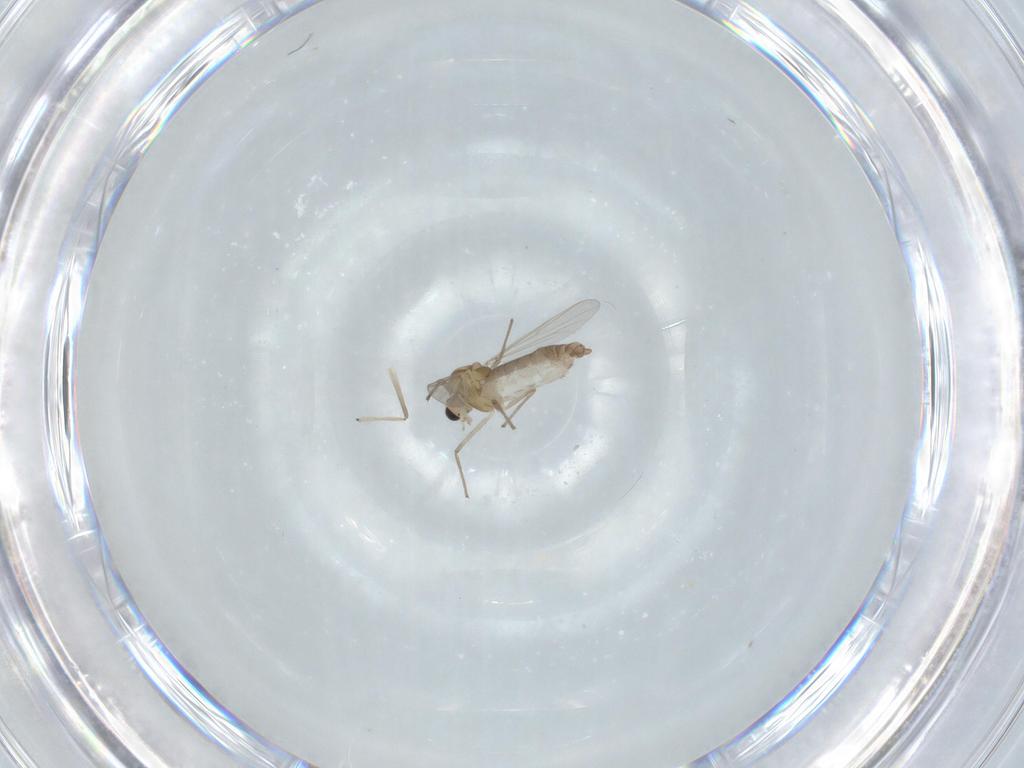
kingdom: Animalia
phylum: Arthropoda
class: Insecta
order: Diptera
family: Chironomidae
